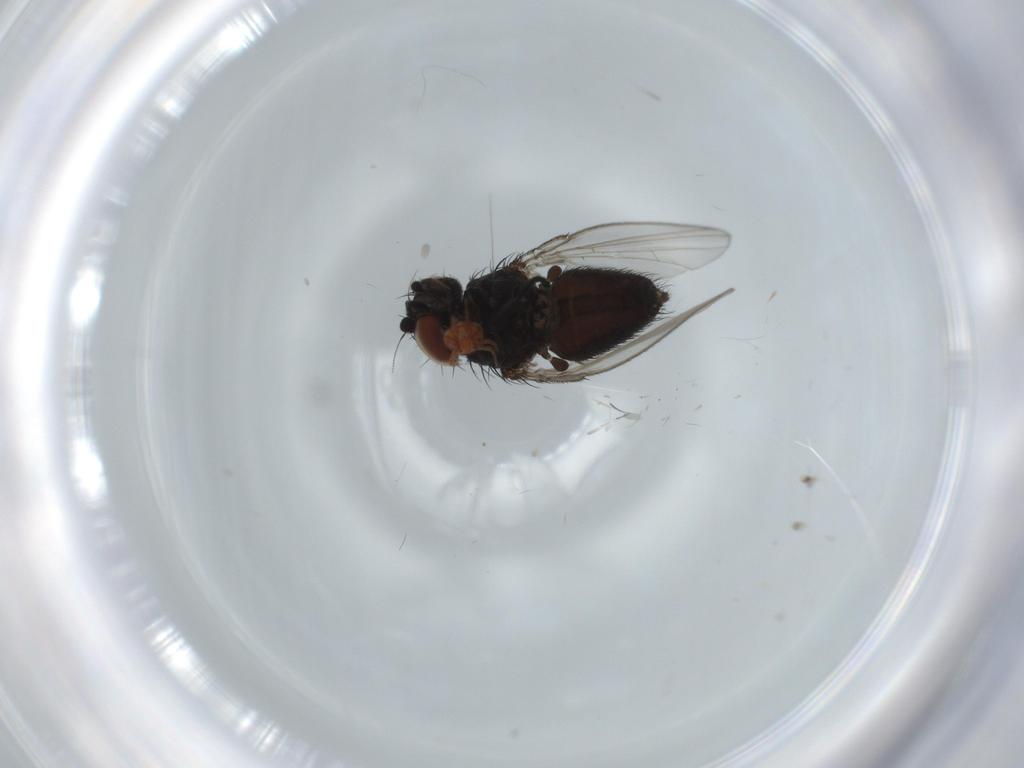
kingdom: Animalia
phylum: Arthropoda
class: Insecta
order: Diptera
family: Milichiidae
